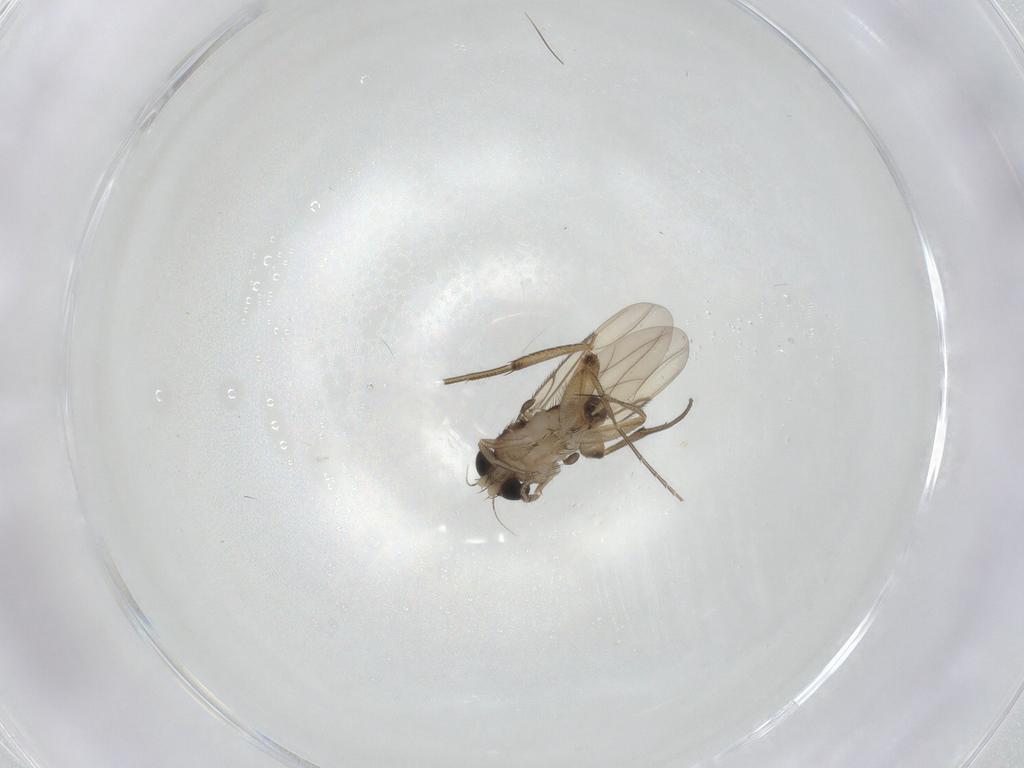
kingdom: Animalia
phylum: Arthropoda
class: Insecta
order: Diptera
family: Phoridae
